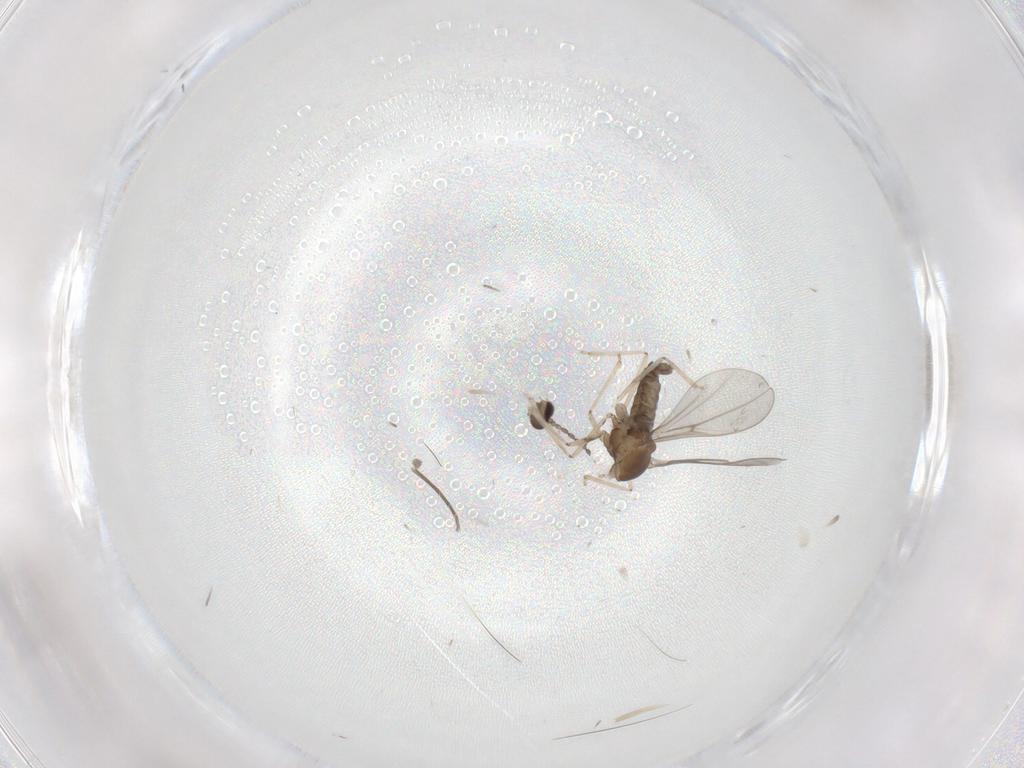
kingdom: Animalia
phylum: Arthropoda
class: Insecta
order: Diptera
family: Cecidomyiidae
